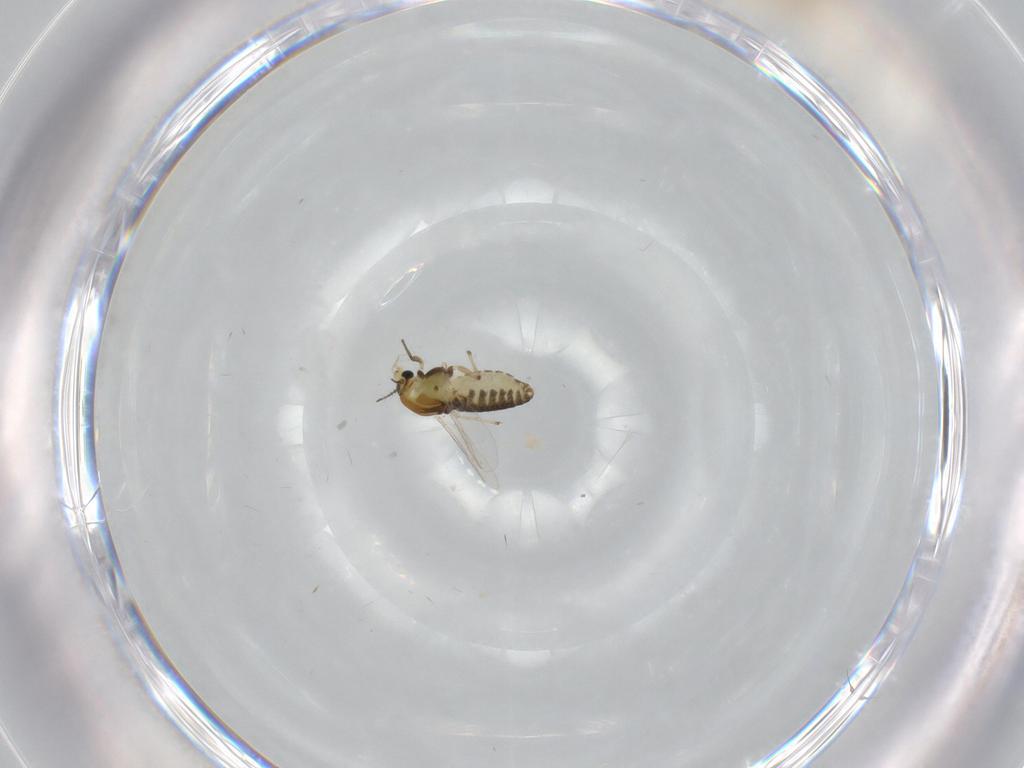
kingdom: Animalia
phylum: Arthropoda
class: Insecta
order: Diptera
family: Chironomidae
